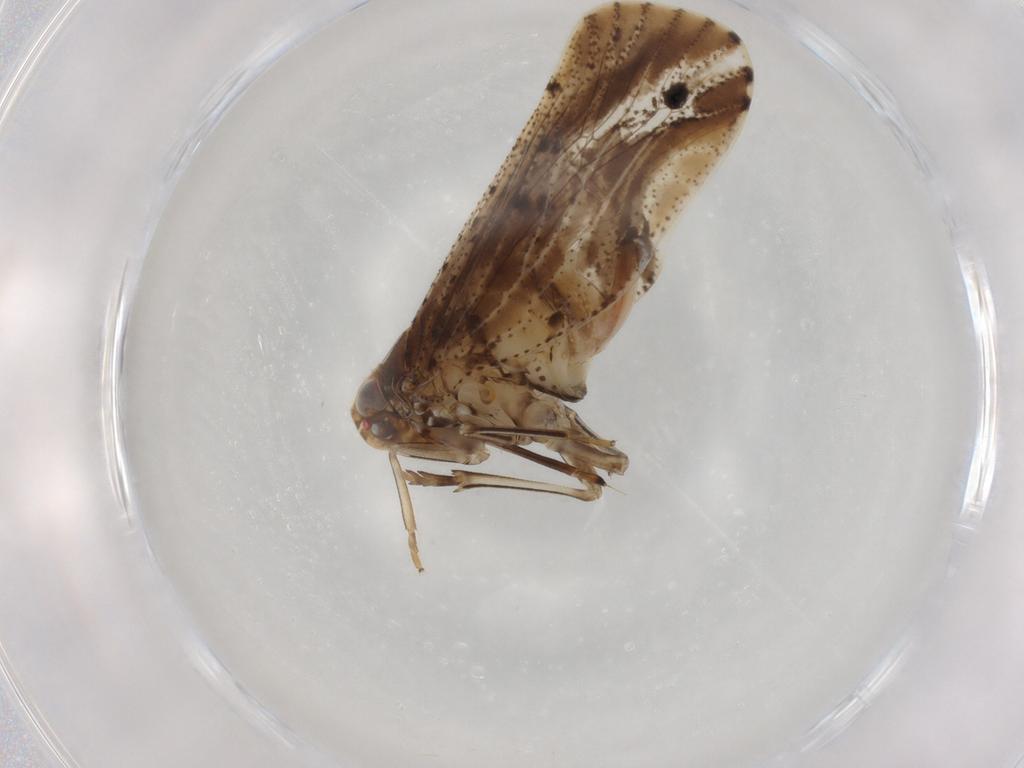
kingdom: Animalia
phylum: Arthropoda
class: Insecta
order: Hemiptera
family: Cixiidae
